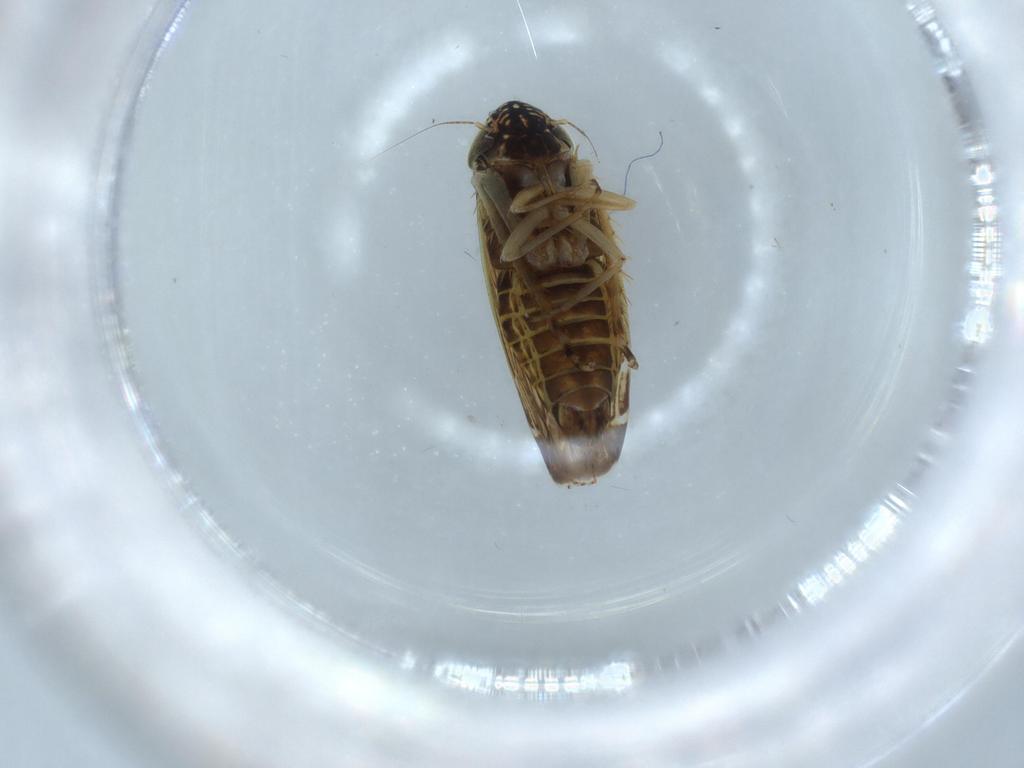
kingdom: Animalia
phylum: Arthropoda
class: Insecta
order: Hemiptera
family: Cicadellidae
